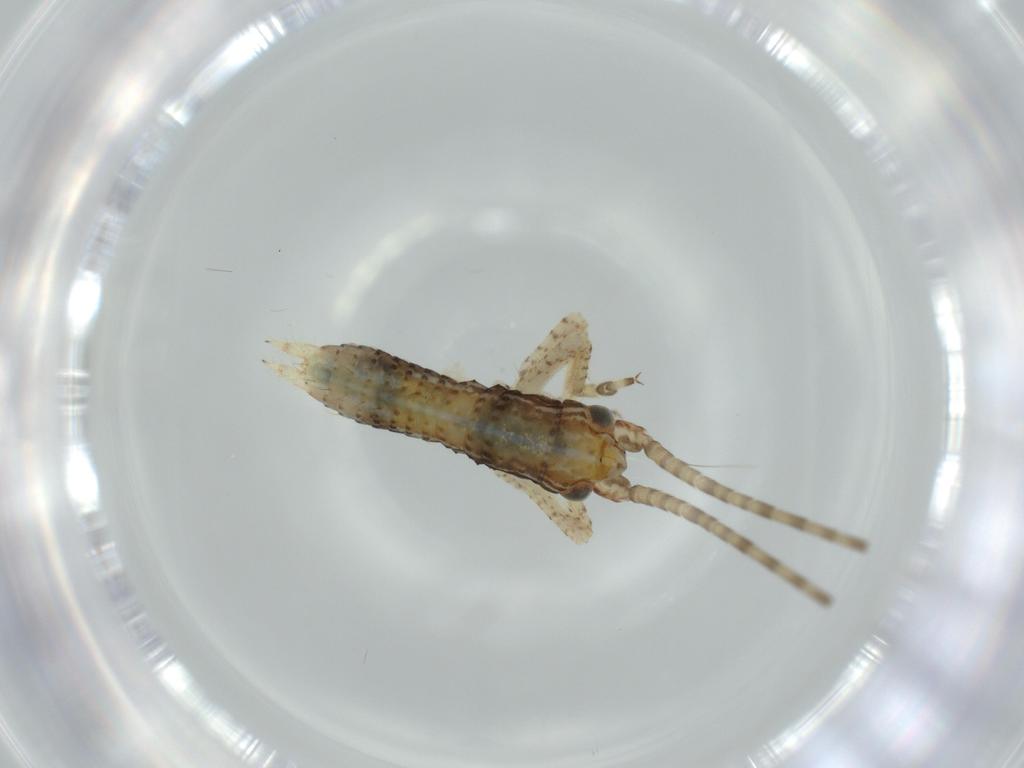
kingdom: Animalia
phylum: Arthropoda
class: Insecta
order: Orthoptera
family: Gryllidae
